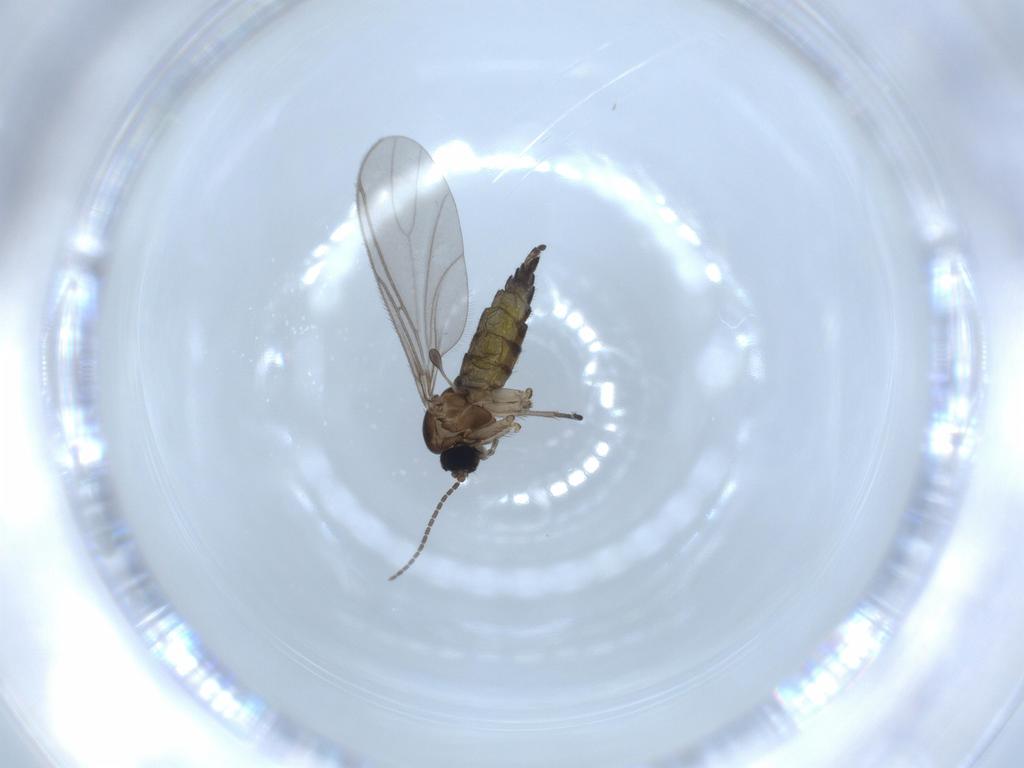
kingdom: Animalia
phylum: Arthropoda
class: Insecta
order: Diptera
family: Sciaridae
